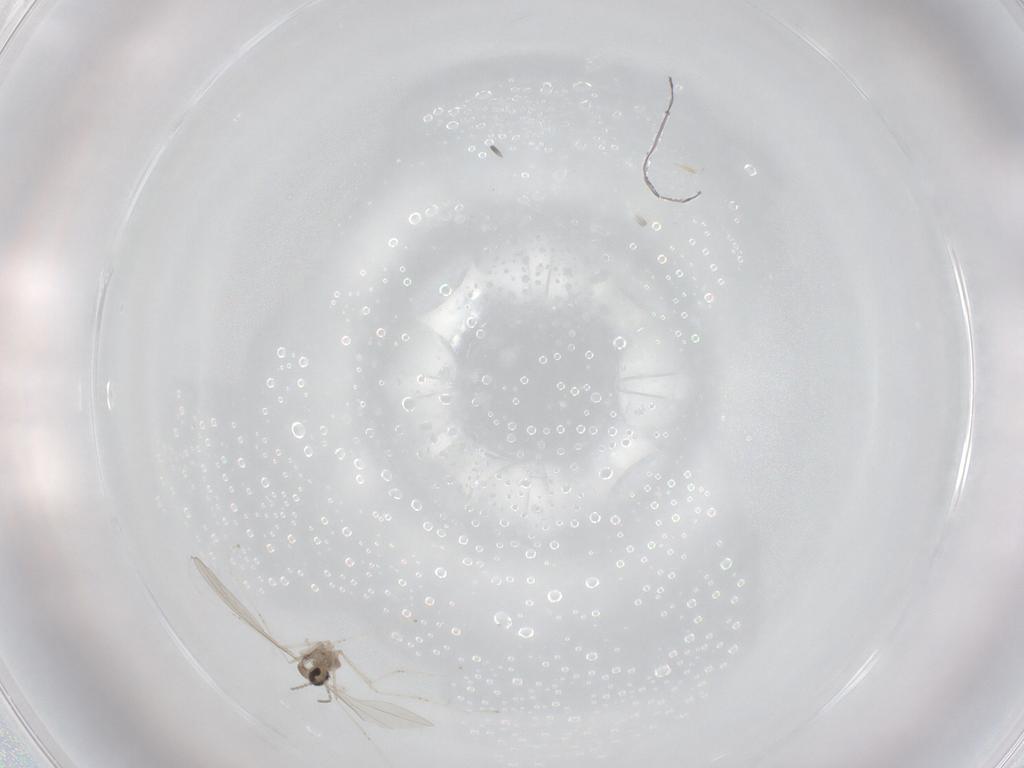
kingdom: Animalia
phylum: Arthropoda
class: Insecta
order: Diptera
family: Cecidomyiidae
